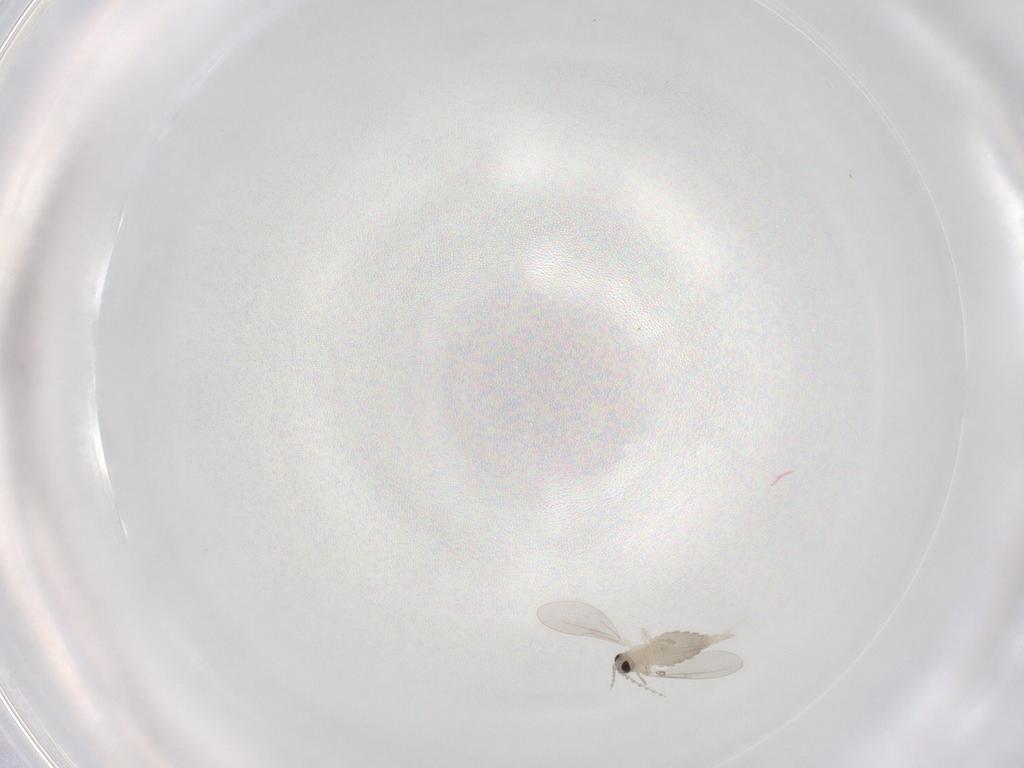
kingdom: Animalia
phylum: Arthropoda
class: Insecta
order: Diptera
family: Cecidomyiidae
